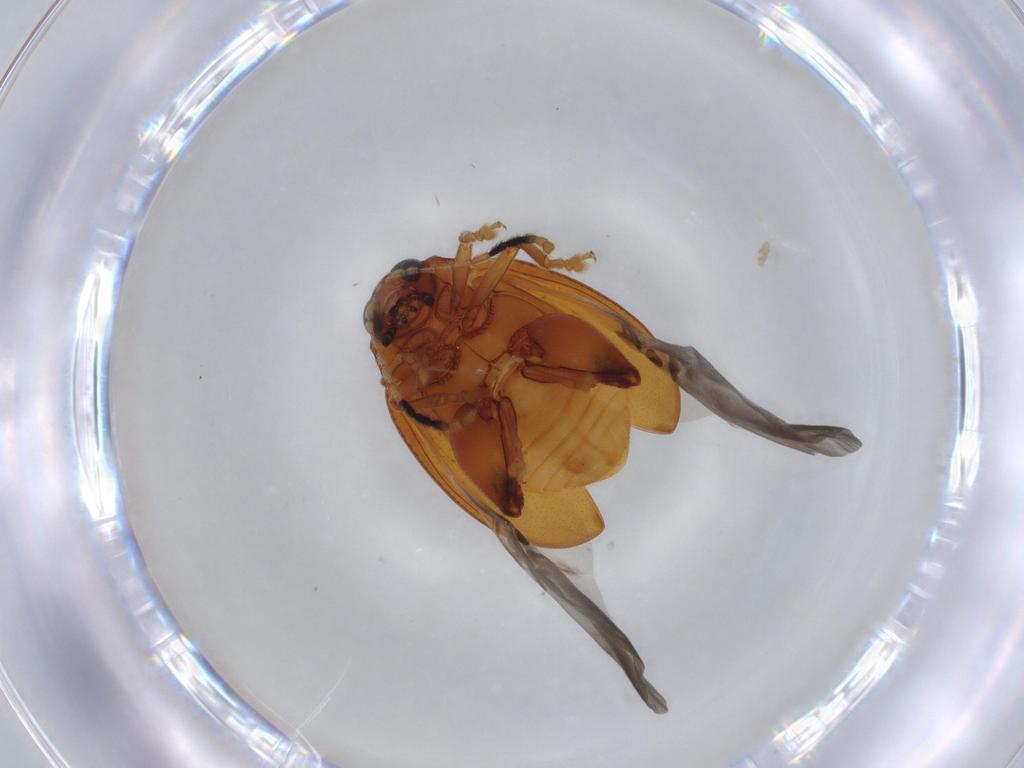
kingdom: Animalia
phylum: Arthropoda
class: Insecta
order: Coleoptera
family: Chrysomelidae
